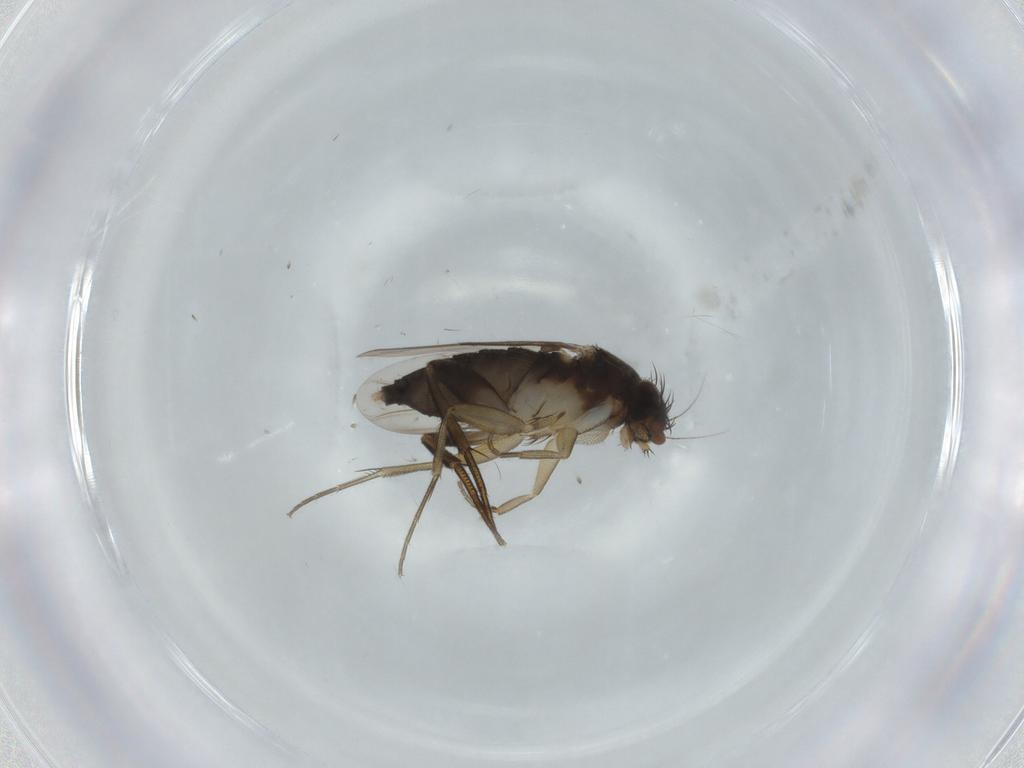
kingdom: Animalia
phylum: Arthropoda
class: Insecta
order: Diptera
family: Phoridae
